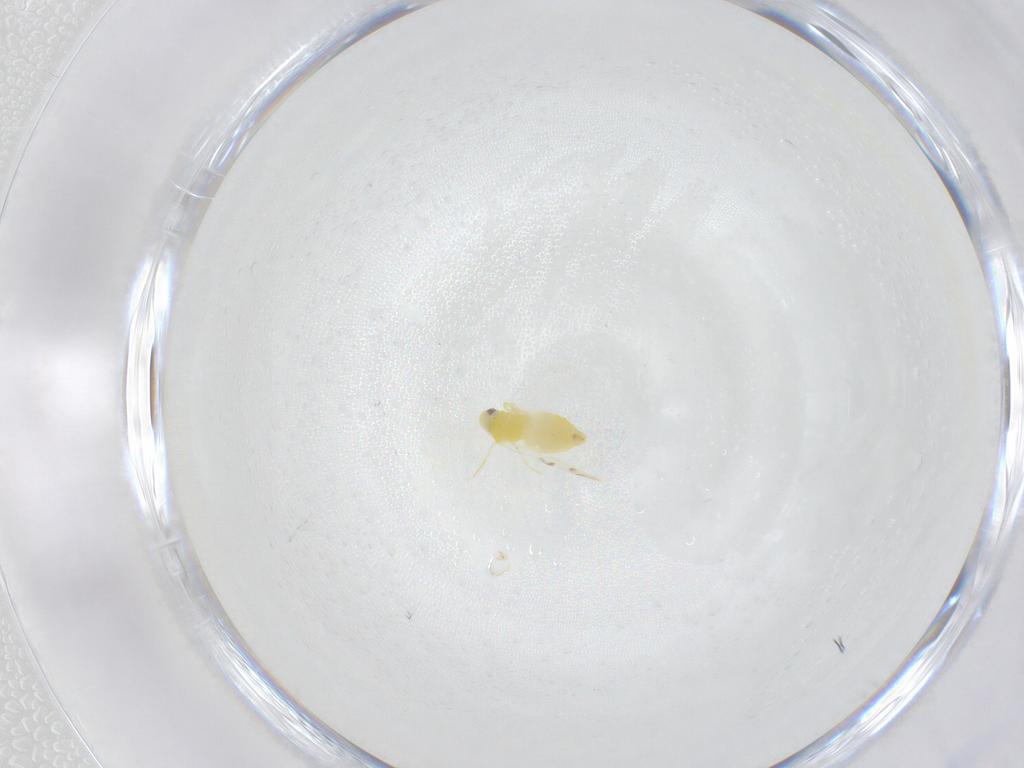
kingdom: Animalia
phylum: Arthropoda
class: Insecta
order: Hemiptera
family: Aleyrodidae
